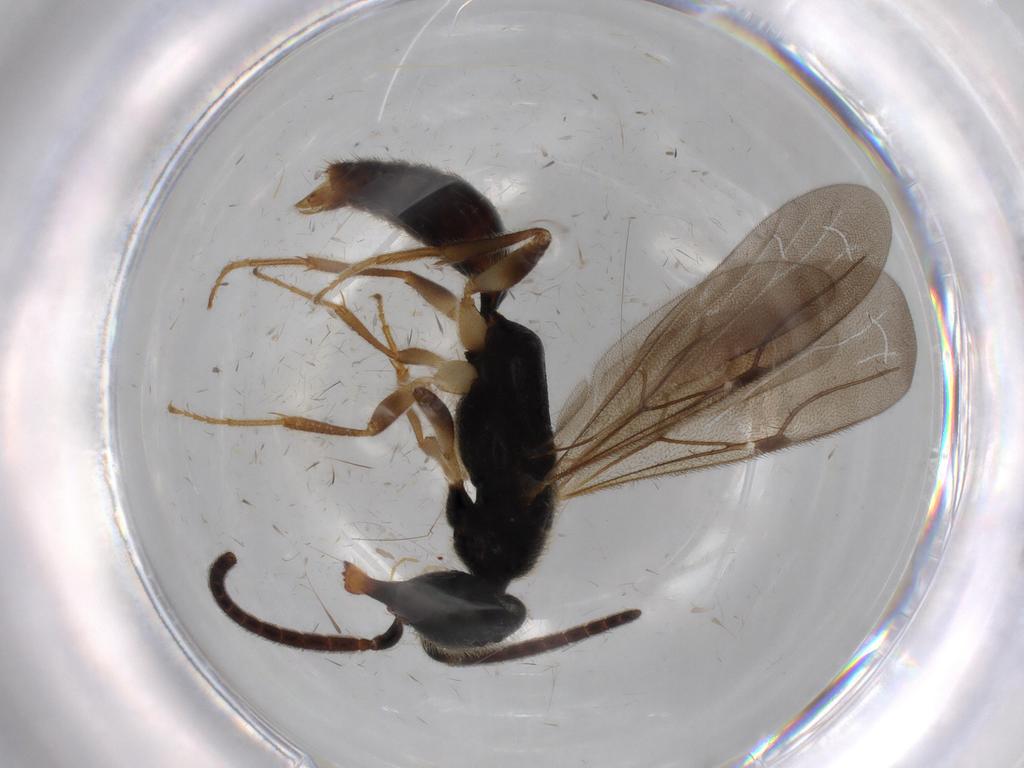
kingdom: Animalia
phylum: Arthropoda
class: Insecta
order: Hymenoptera
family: Bethylidae
